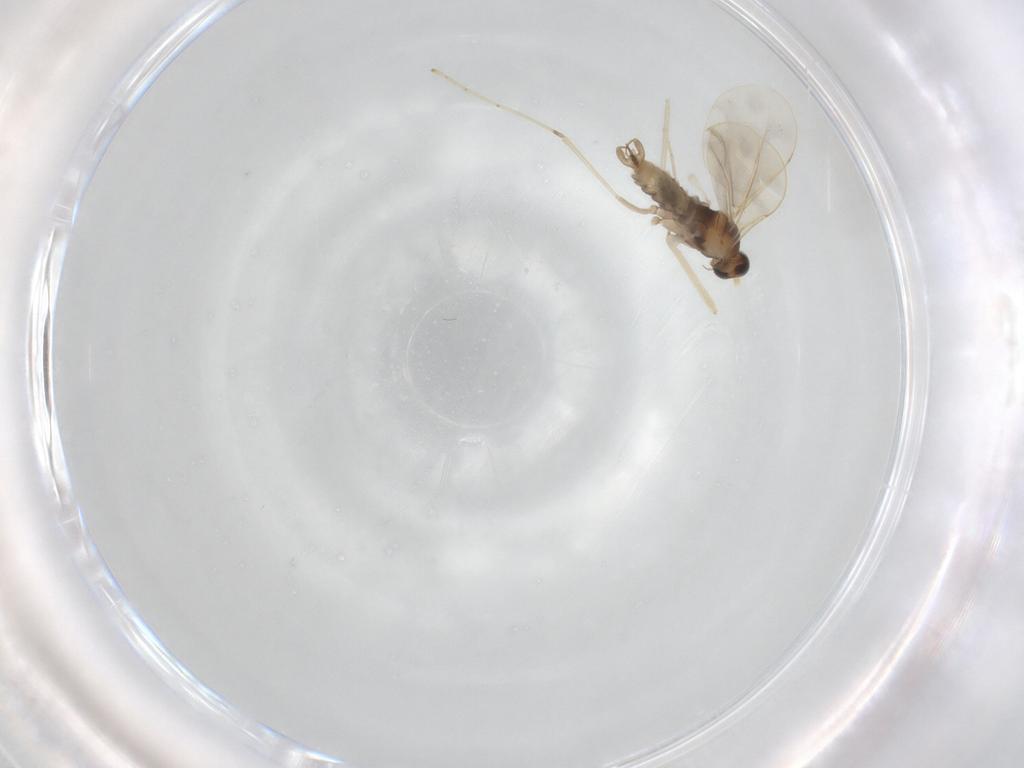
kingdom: Animalia
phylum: Arthropoda
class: Insecta
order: Diptera
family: Cecidomyiidae
